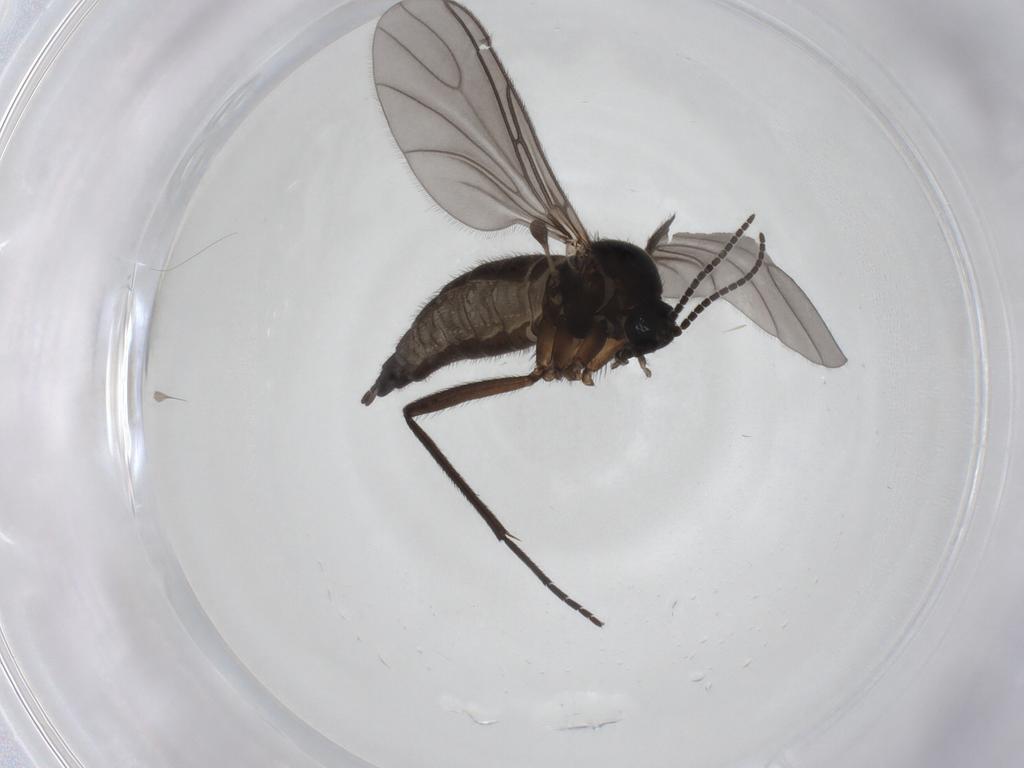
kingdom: Animalia
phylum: Arthropoda
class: Insecta
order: Diptera
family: Sciaridae
